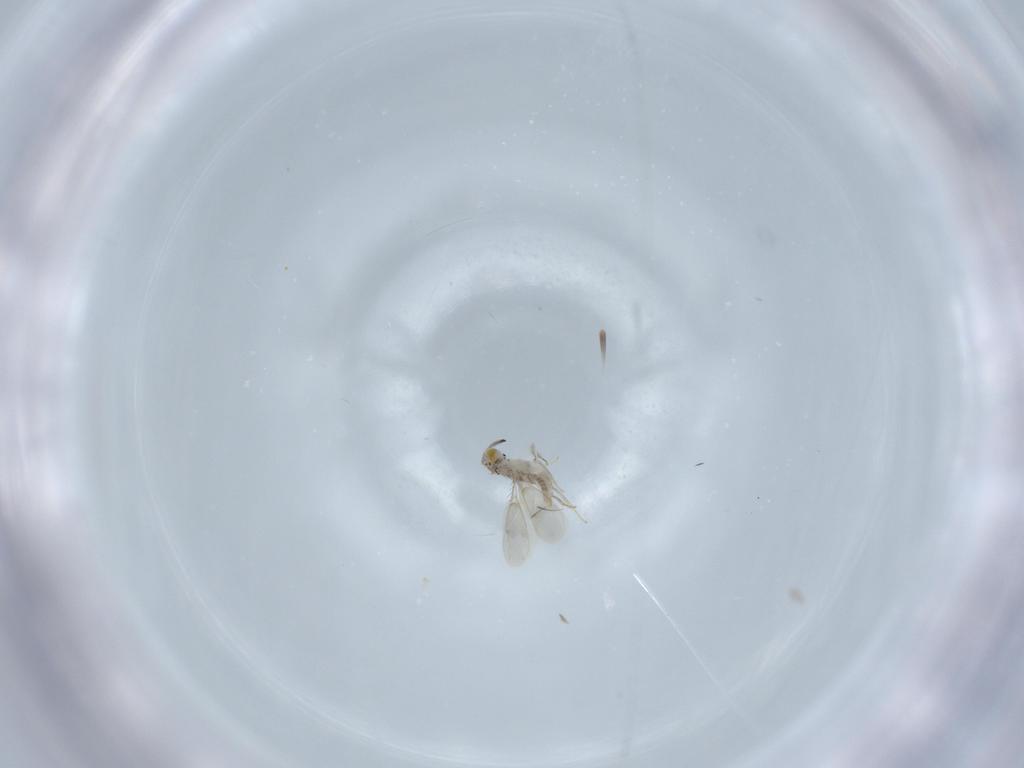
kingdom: Animalia
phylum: Arthropoda
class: Insecta
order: Hymenoptera
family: Aphelinidae
